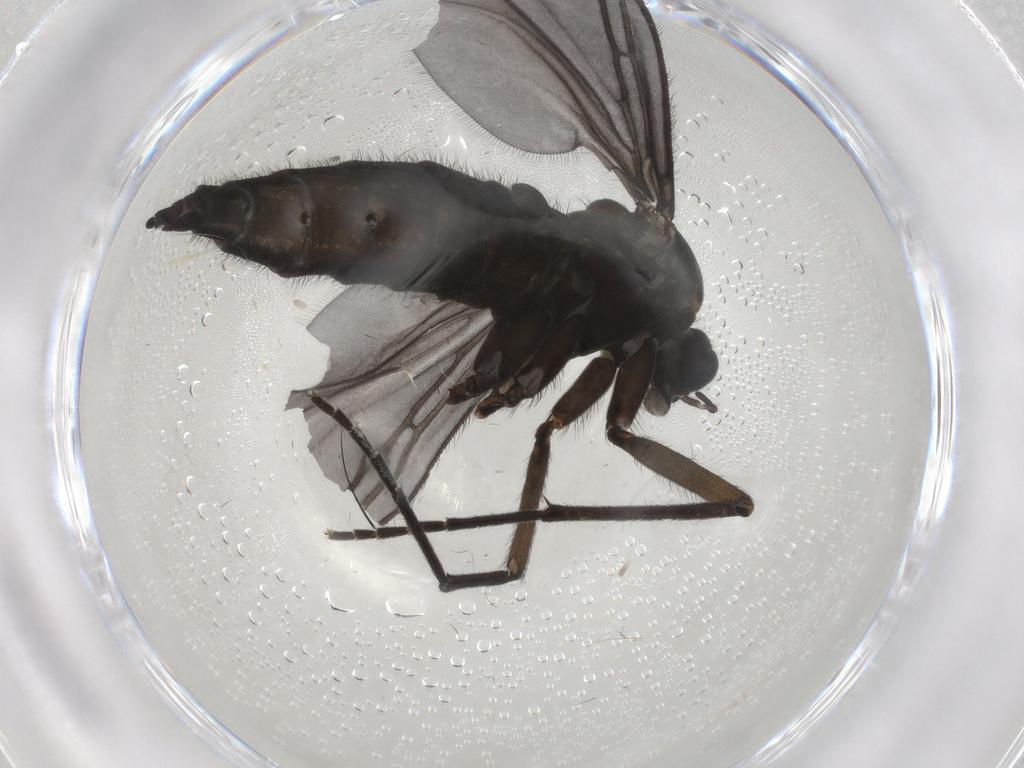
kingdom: Animalia
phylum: Arthropoda
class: Insecta
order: Diptera
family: Sciaridae
